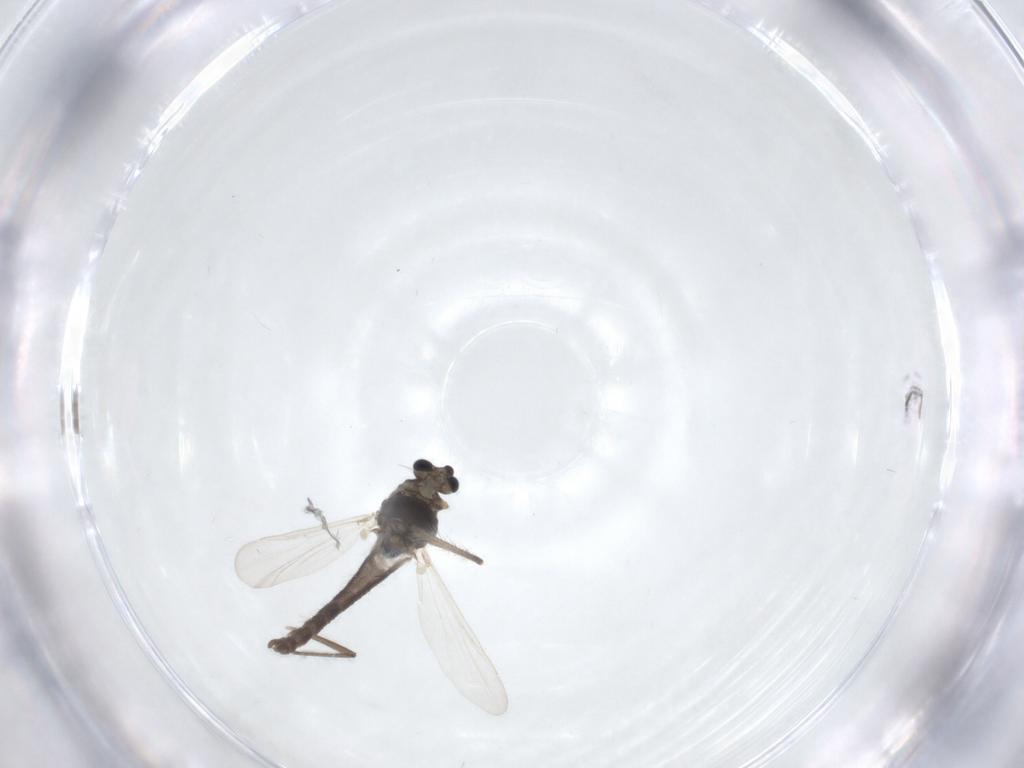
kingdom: Animalia
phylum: Arthropoda
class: Insecta
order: Diptera
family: Chironomidae
